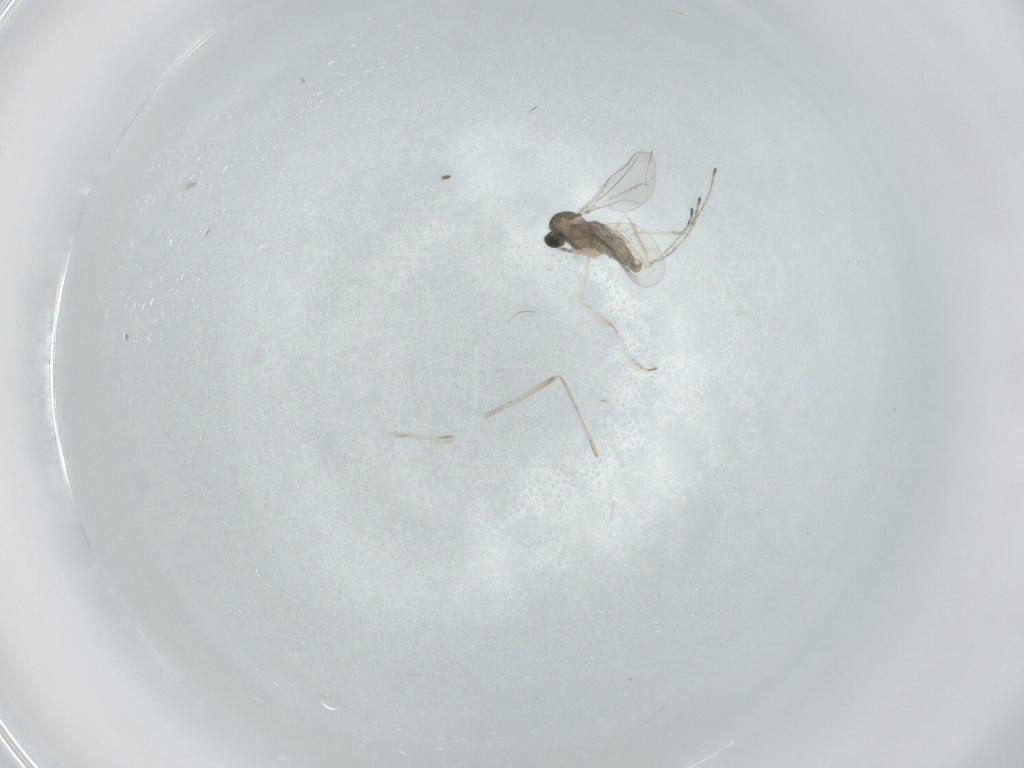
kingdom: Animalia
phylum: Arthropoda
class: Insecta
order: Diptera
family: Cecidomyiidae
